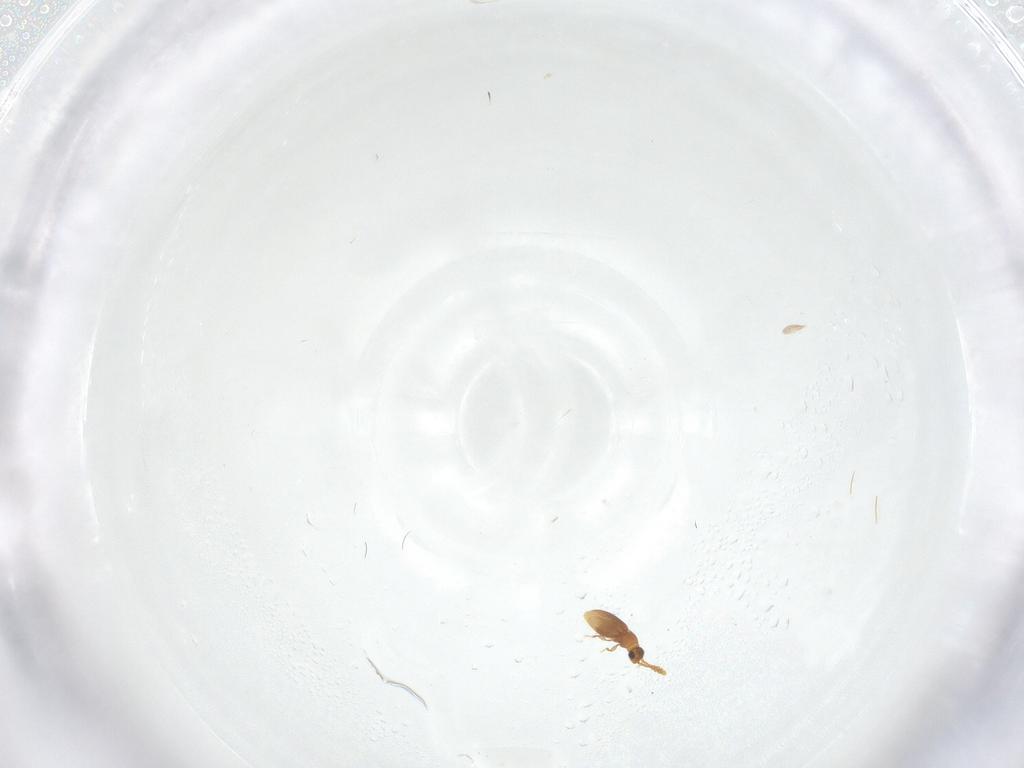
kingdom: Animalia
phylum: Arthropoda
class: Insecta
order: Coleoptera
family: Staphylinidae
